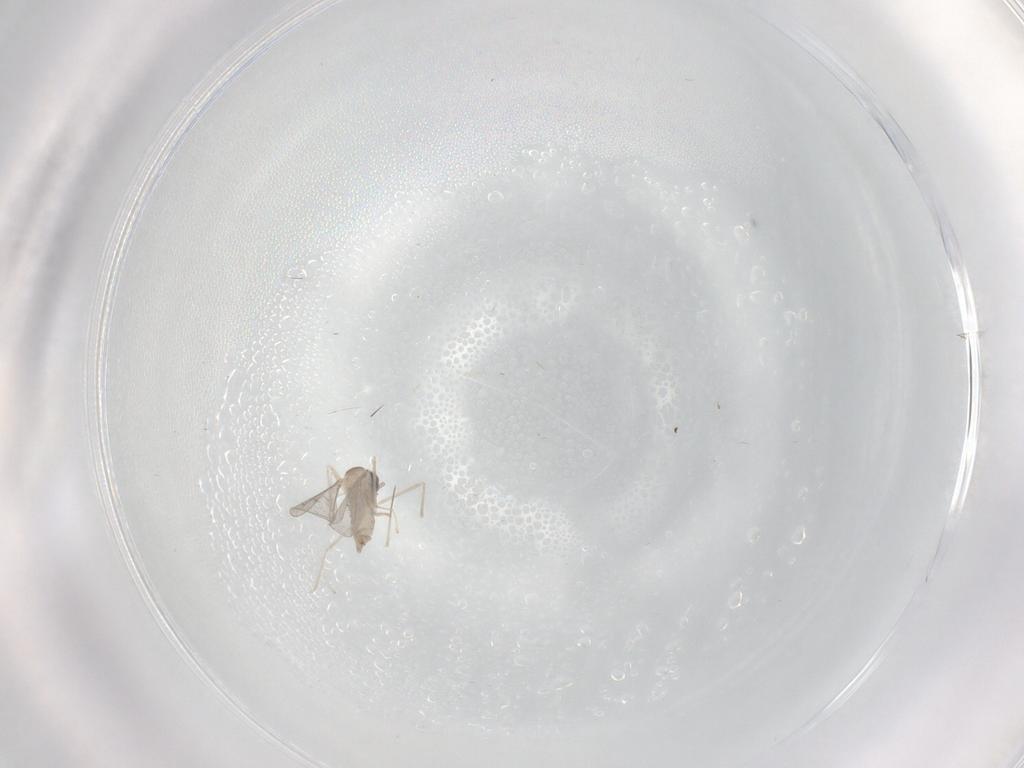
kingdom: Animalia
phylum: Arthropoda
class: Insecta
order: Diptera
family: Cecidomyiidae
